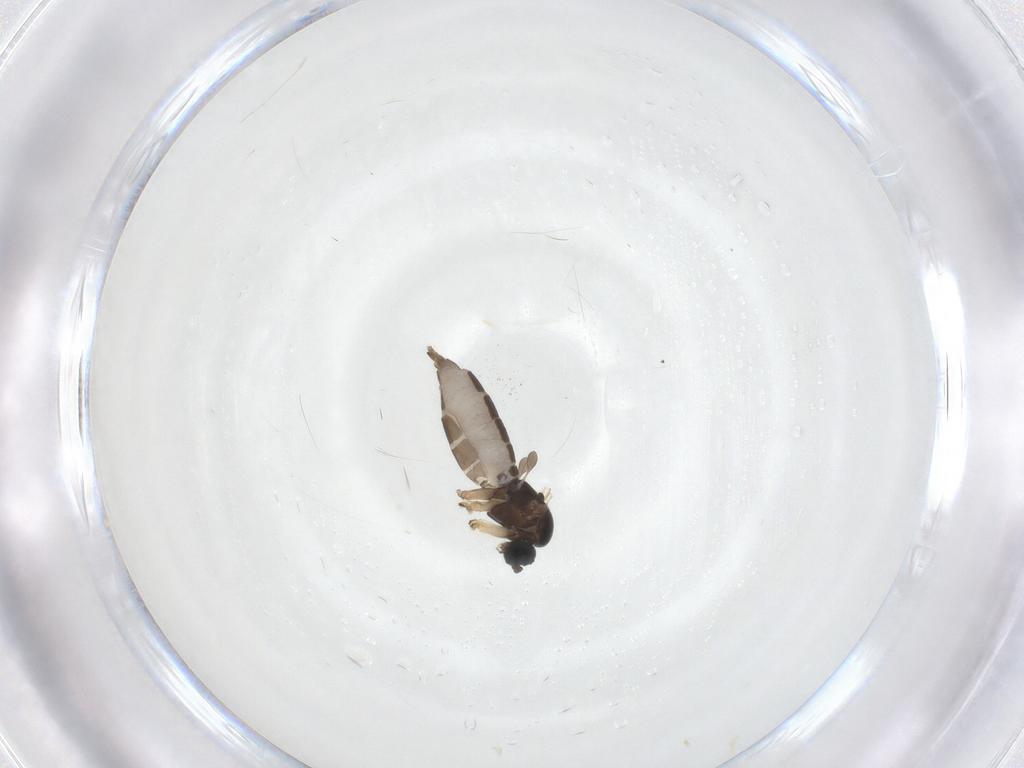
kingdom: Animalia
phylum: Arthropoda
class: Insecta
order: Diptera
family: Sciaridae
